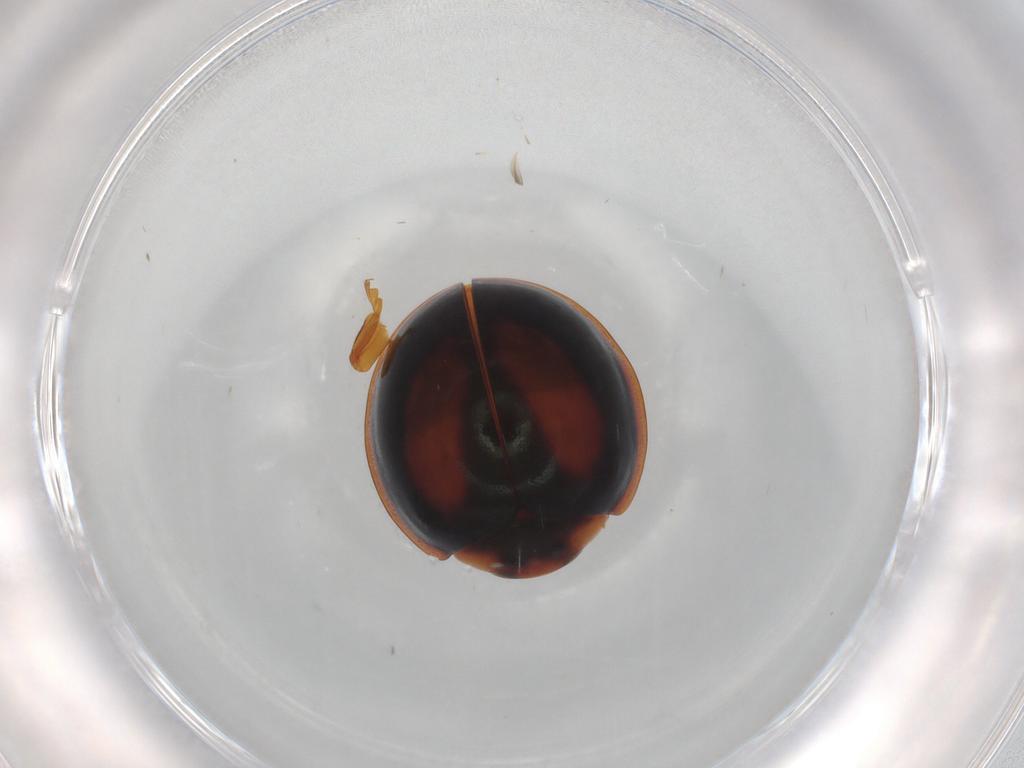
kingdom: Animalia
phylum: Arthropoda
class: Insecta
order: Coleoptera
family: Coccinellidae
